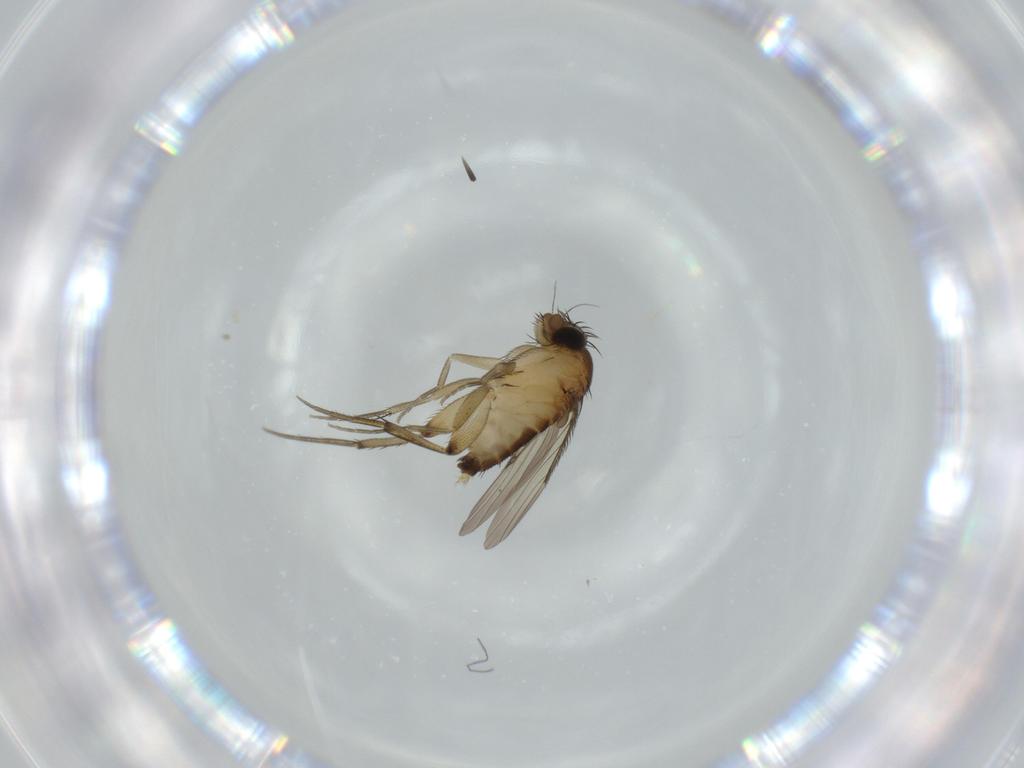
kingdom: Animalia
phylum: Arthropoda
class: Insecta
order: Diptera
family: Phoridae
